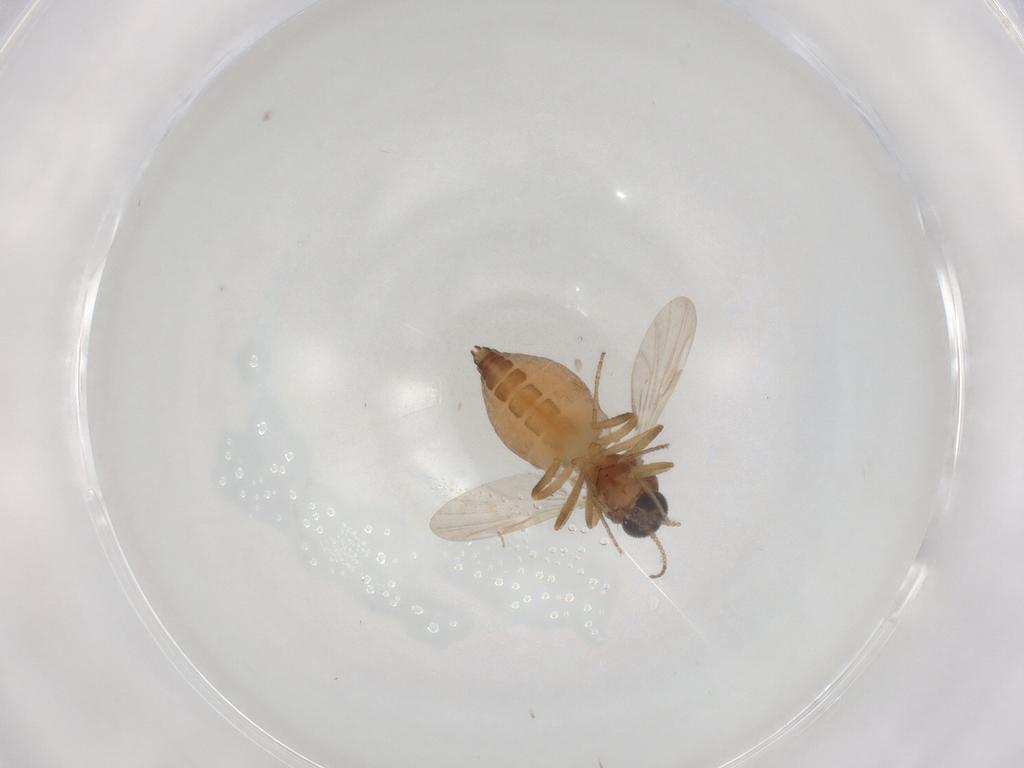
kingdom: Animalia
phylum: Arthropoda
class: Insecta
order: Diptera
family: Ceratopogonidae
